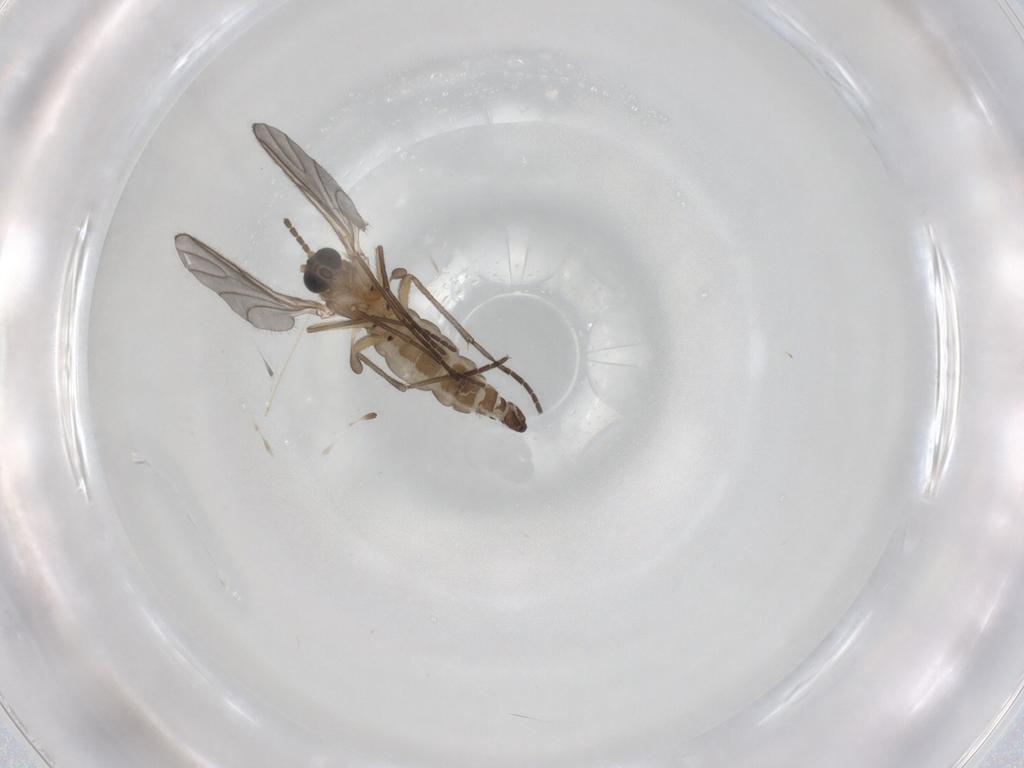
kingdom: Animalia
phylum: Arthropoda
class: Insecta
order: Diptera
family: Sciaridae
